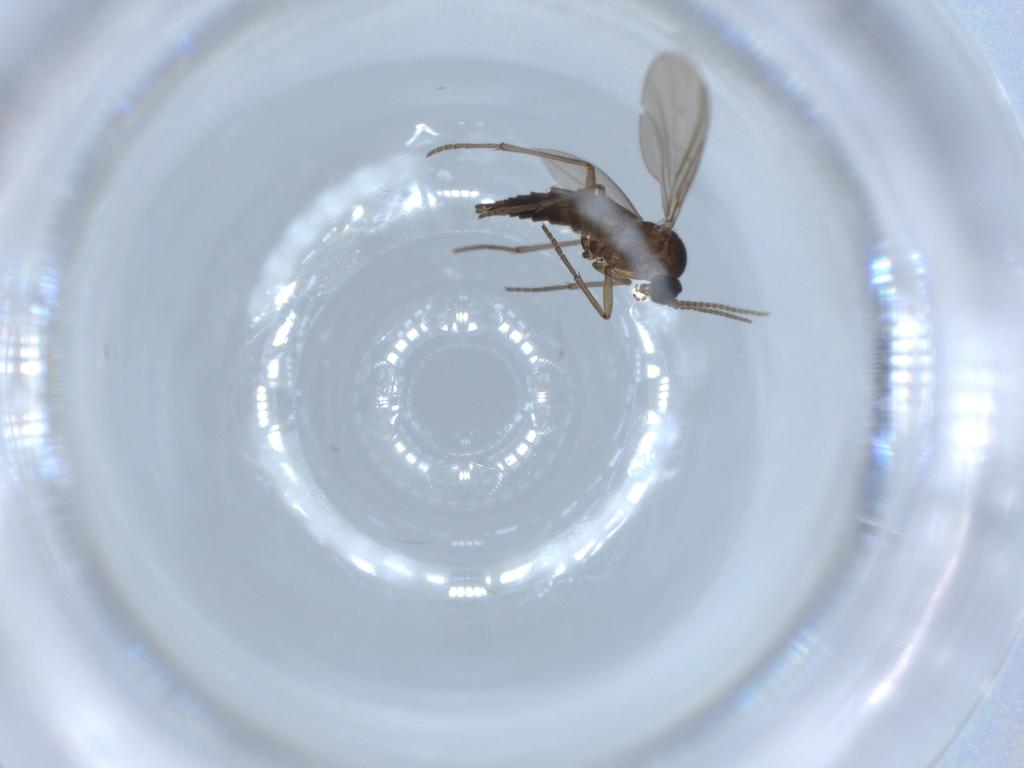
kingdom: Animalia
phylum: Arthropoda
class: Insecta
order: Diptera
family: Sciaridae
